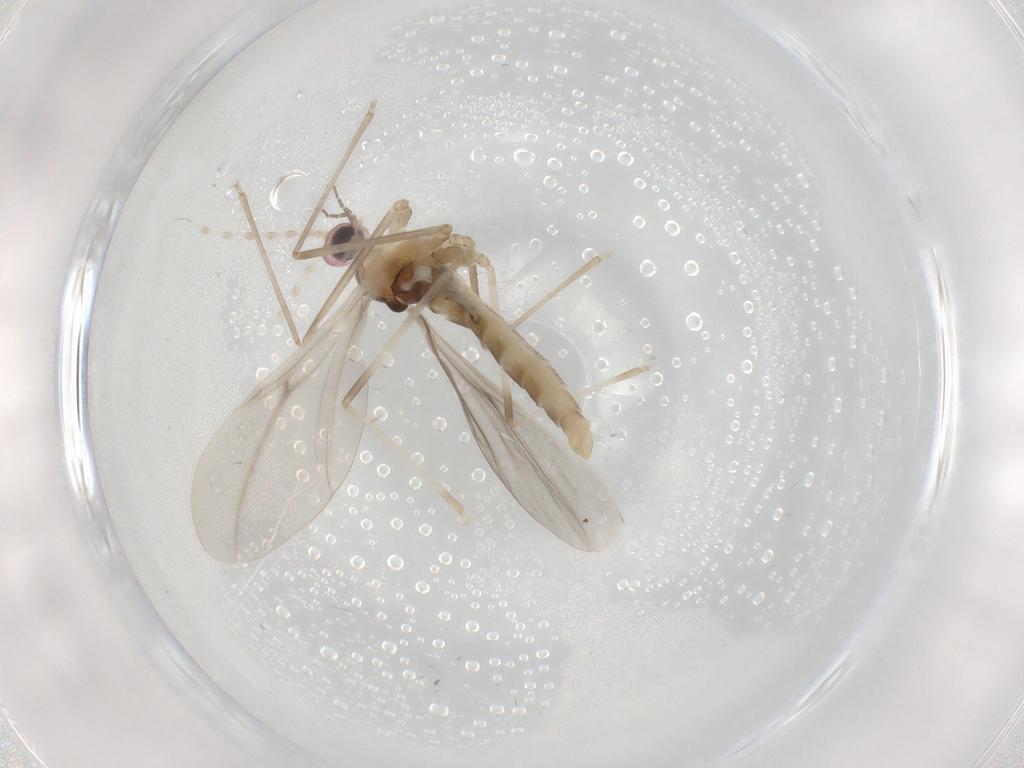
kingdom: Animalia
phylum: Arthropoda
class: Insecta
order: Diptera
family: Cecidomyiidae
